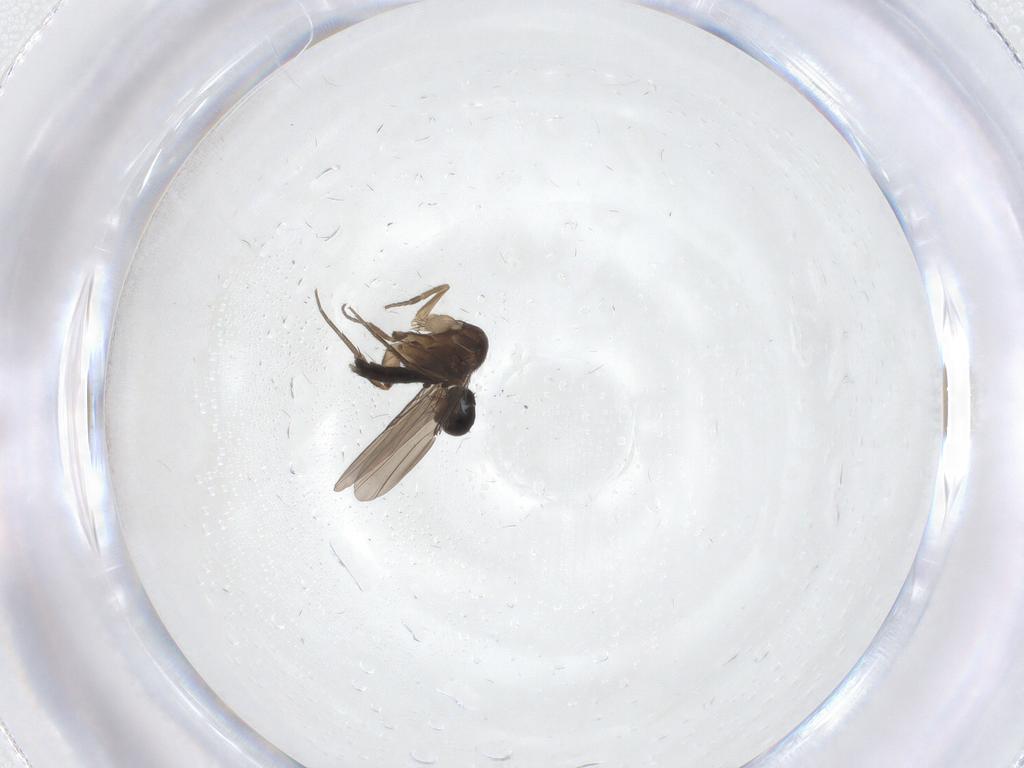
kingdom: Animalia
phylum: Arthropoda
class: Insecta
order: Diptera
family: Phoridae
